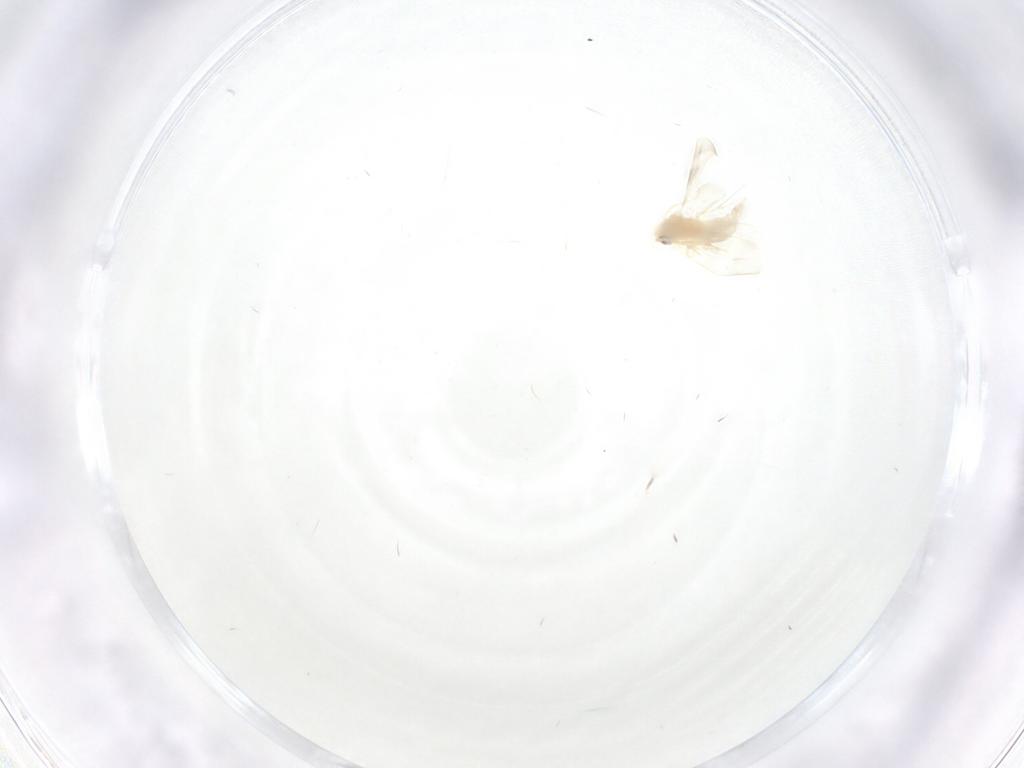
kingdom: Animalia
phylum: Arthropoda
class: Insecta
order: Hemiptera
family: Aleyrodidae
